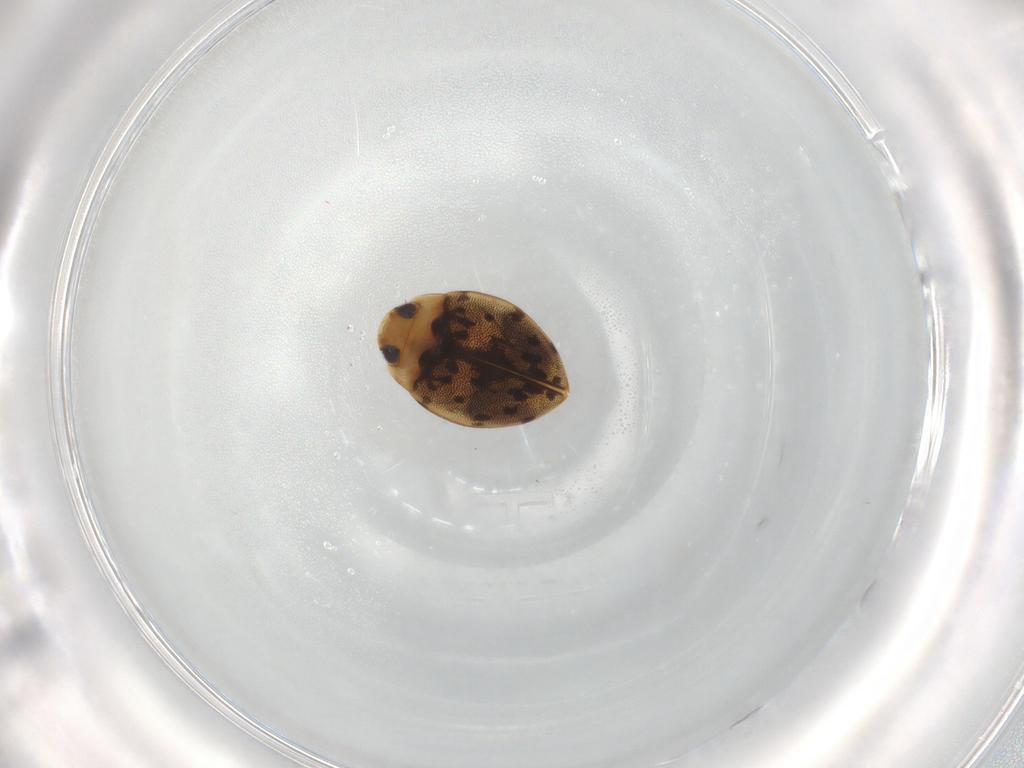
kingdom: Animalia
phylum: Arthropoda
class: Insecta
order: Coleoptera
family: Dytiscidae
